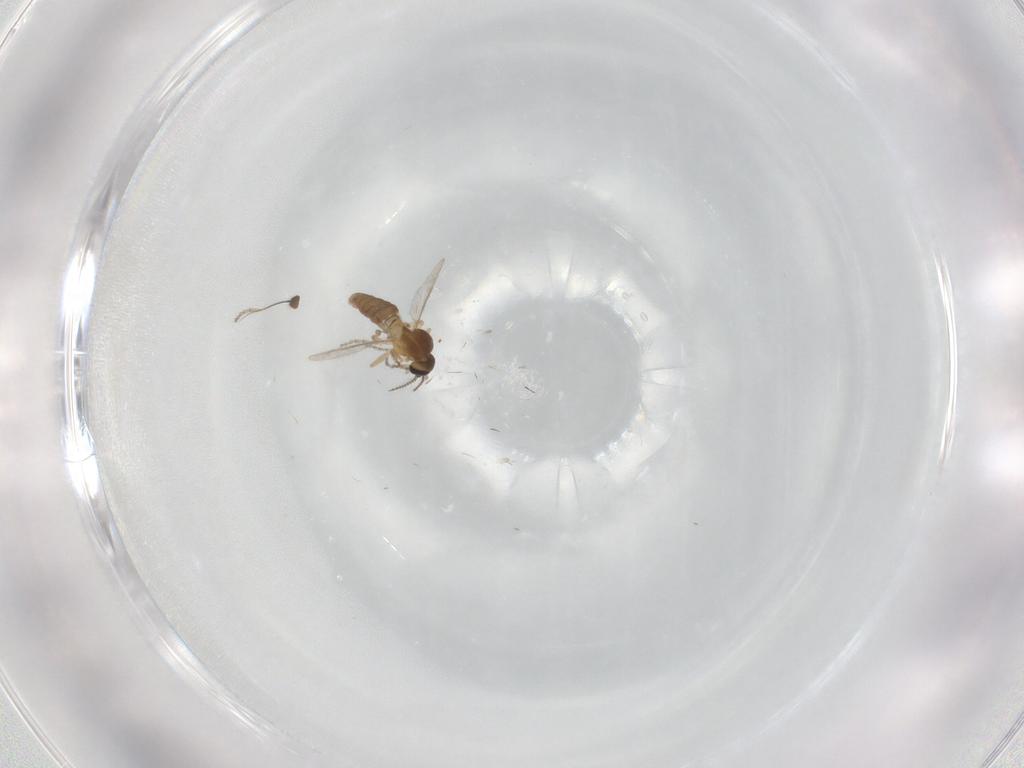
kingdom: Animalia
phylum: Arthropoda
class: Insecta
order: Diptera
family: Ceratopogonidae
